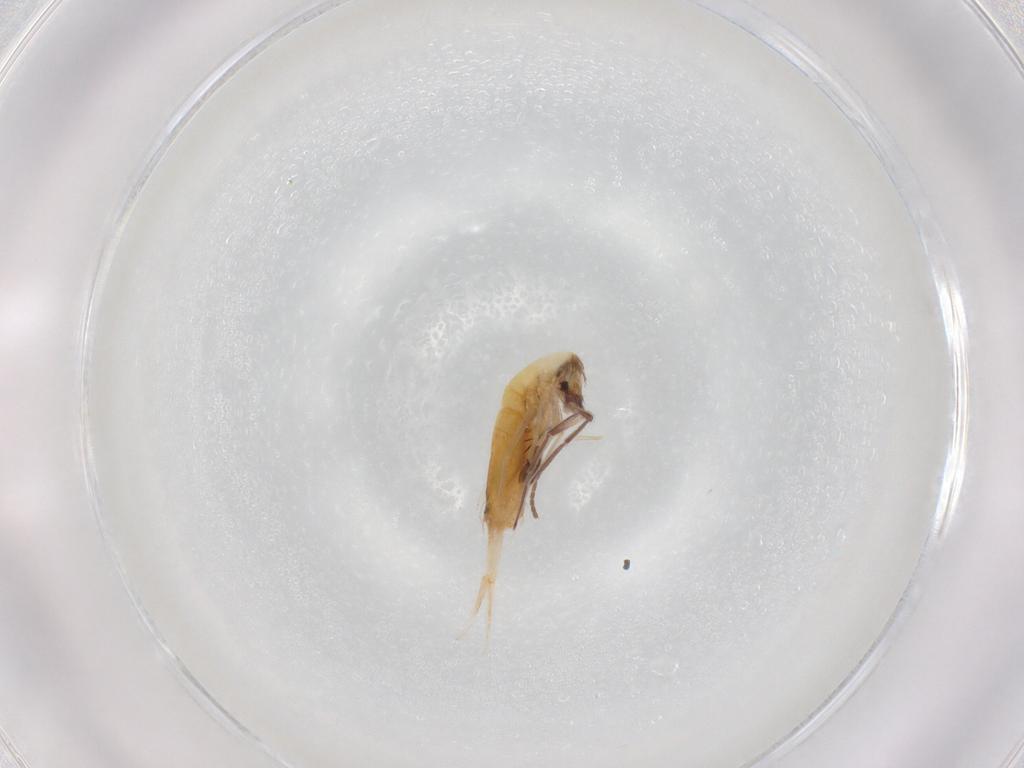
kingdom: Animalia
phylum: Arthropoda
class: Collembola
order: Entomobryomorpha
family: Entomobryidae
